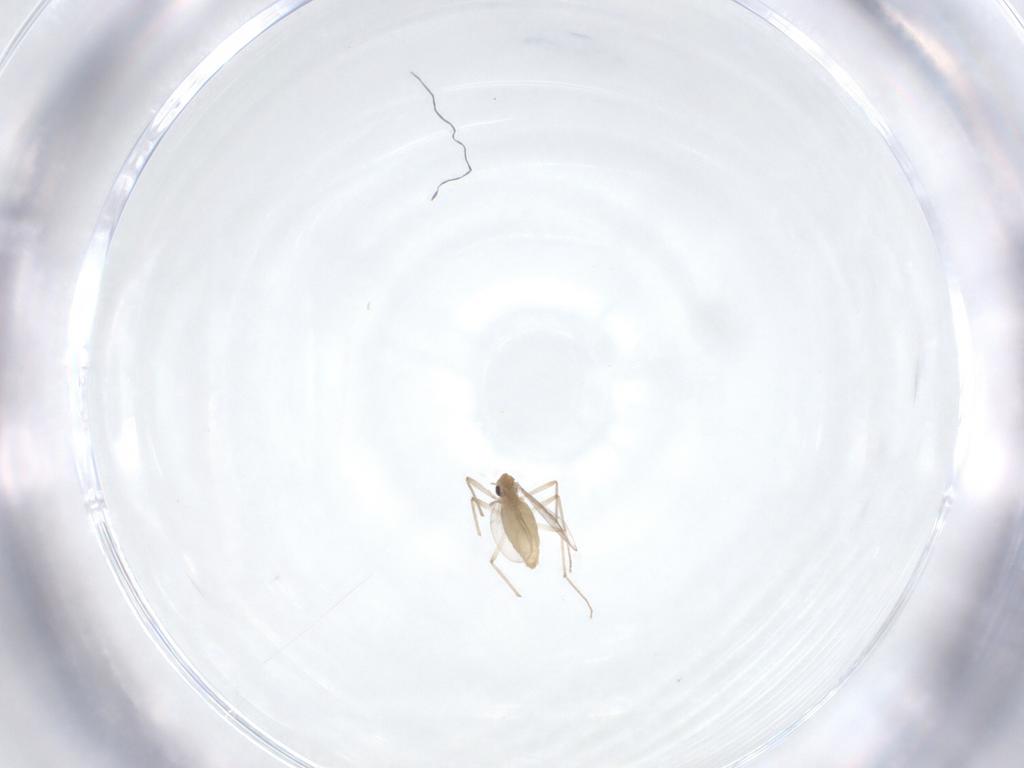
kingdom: Animalia
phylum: Arthropoda
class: Insecta
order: Diptera
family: Chironomidae
